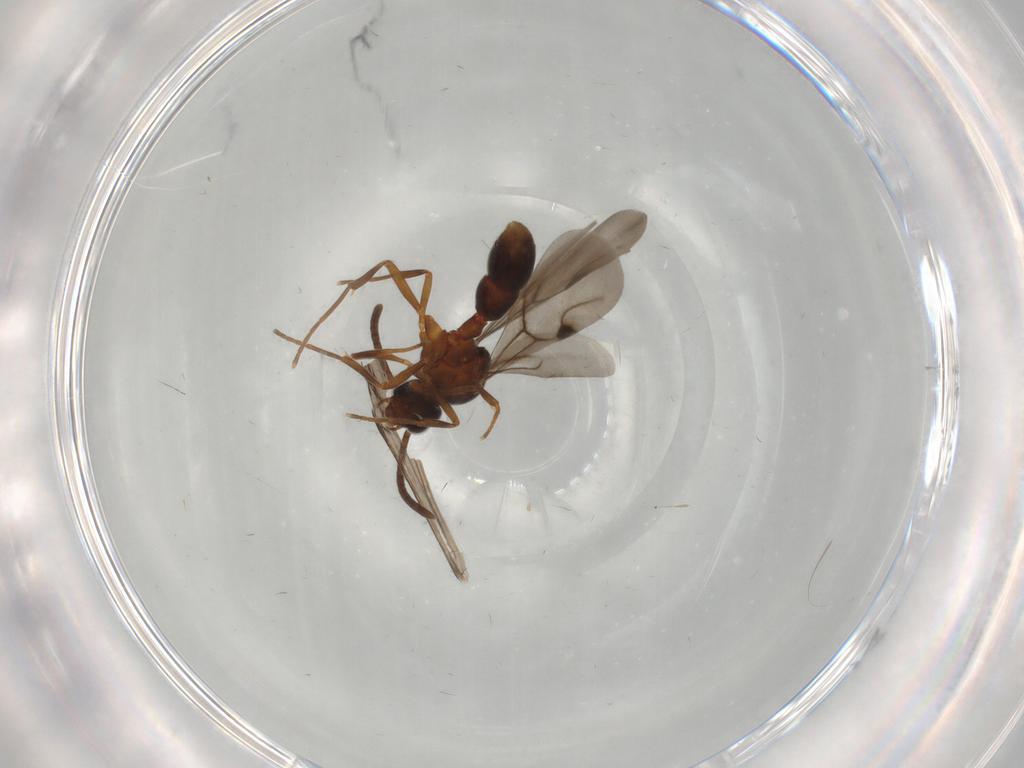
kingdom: Animalia
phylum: Arthropoda
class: Insecta
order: Hymenoptera
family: Formicidae
